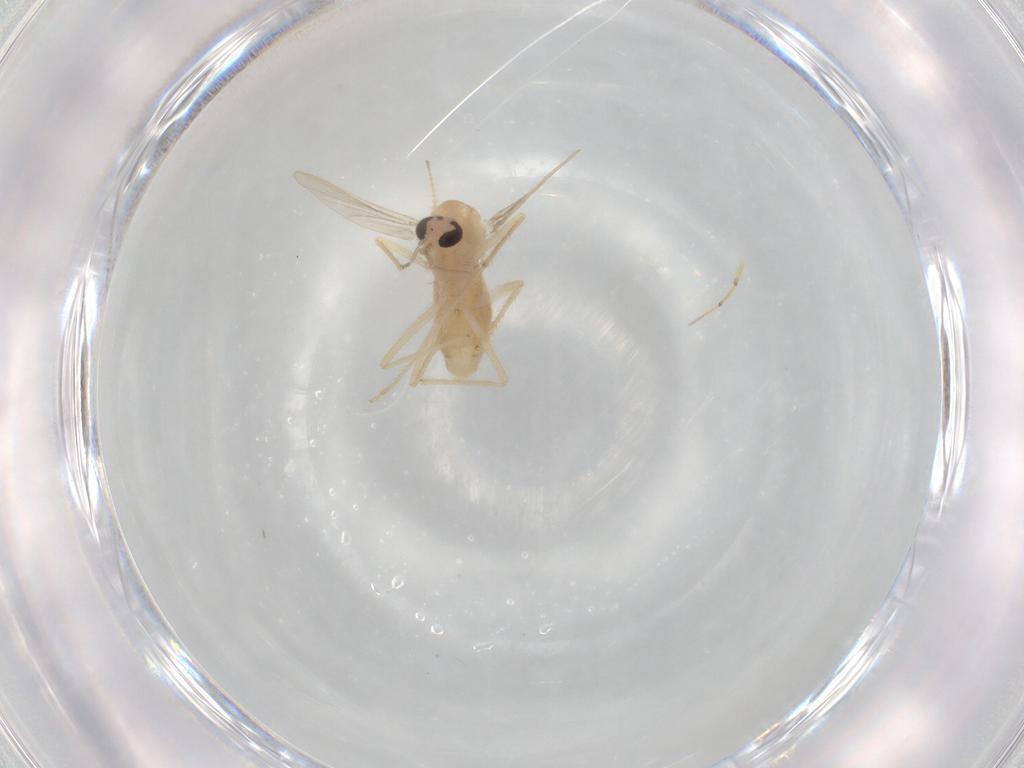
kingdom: Animalia
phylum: Arthropoda
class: Insecta
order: Diptera
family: Chironomidae
